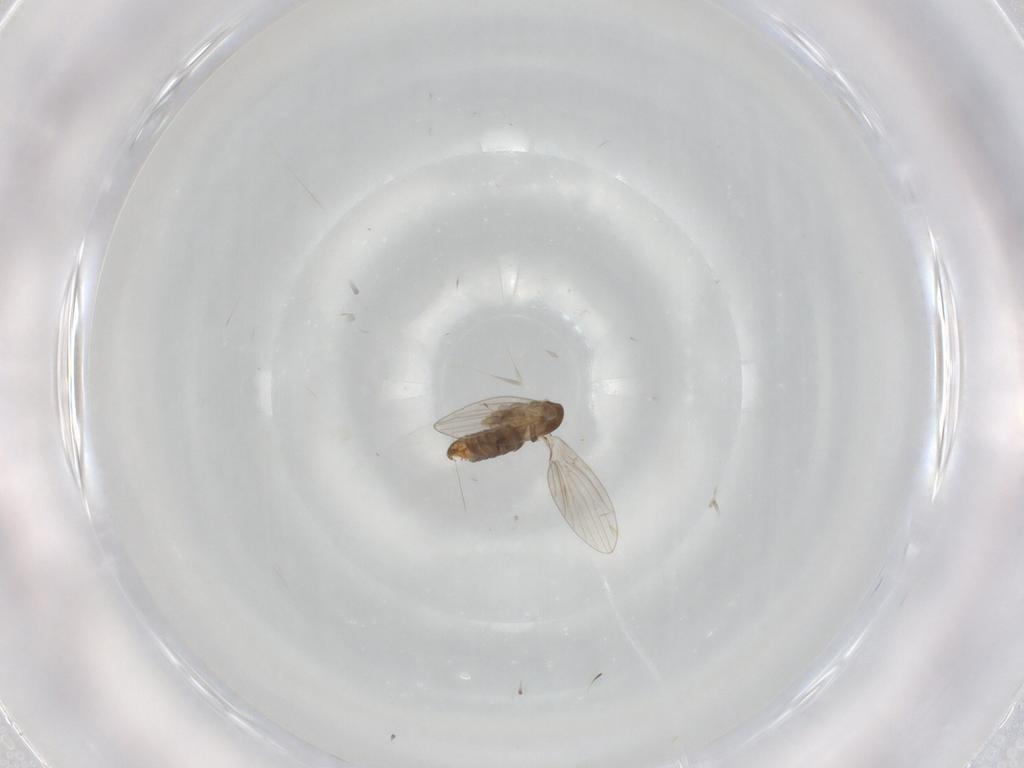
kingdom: Animalia
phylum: Arthropoda
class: Insecta
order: Diptera
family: Psychodidae
